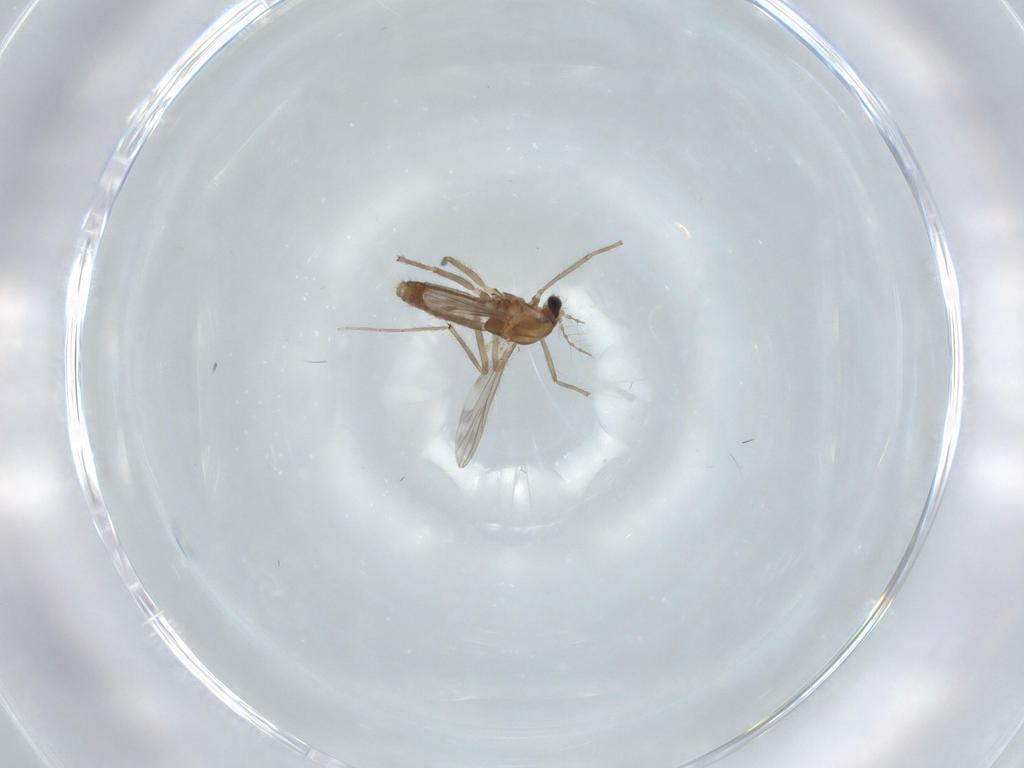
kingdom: Animalia
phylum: Arthropoda
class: Insecta
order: Diptera
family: Chironomidae
